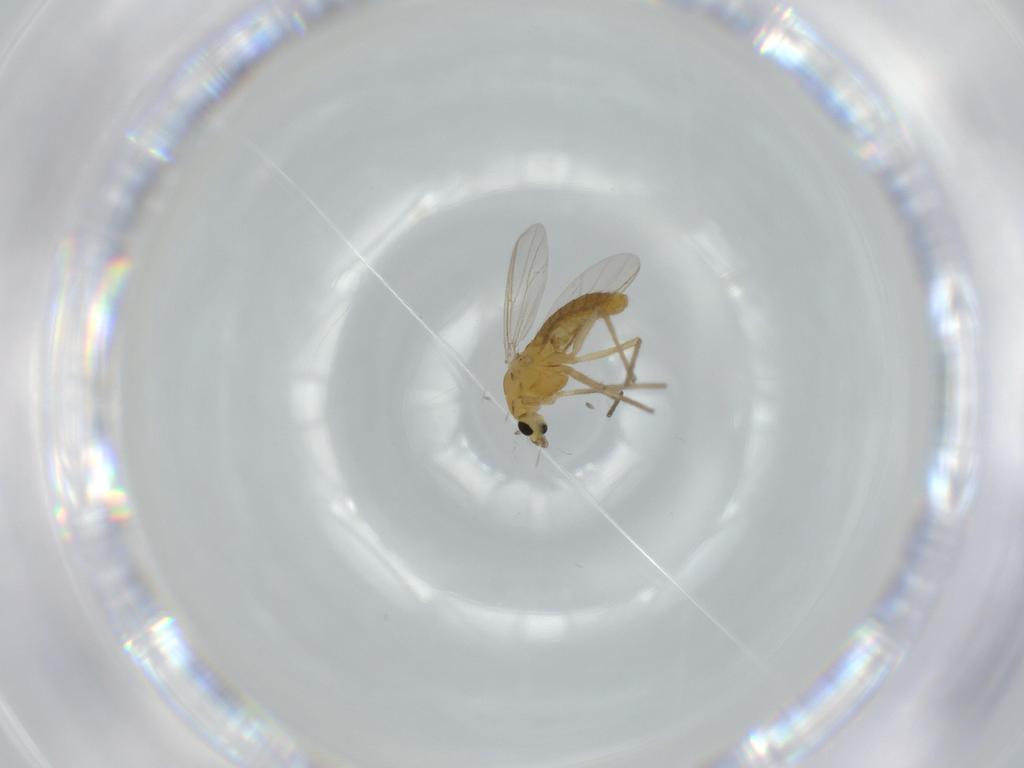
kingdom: Animalia
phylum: Arthropoda
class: Insecta
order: Diptera
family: Chironomidae
